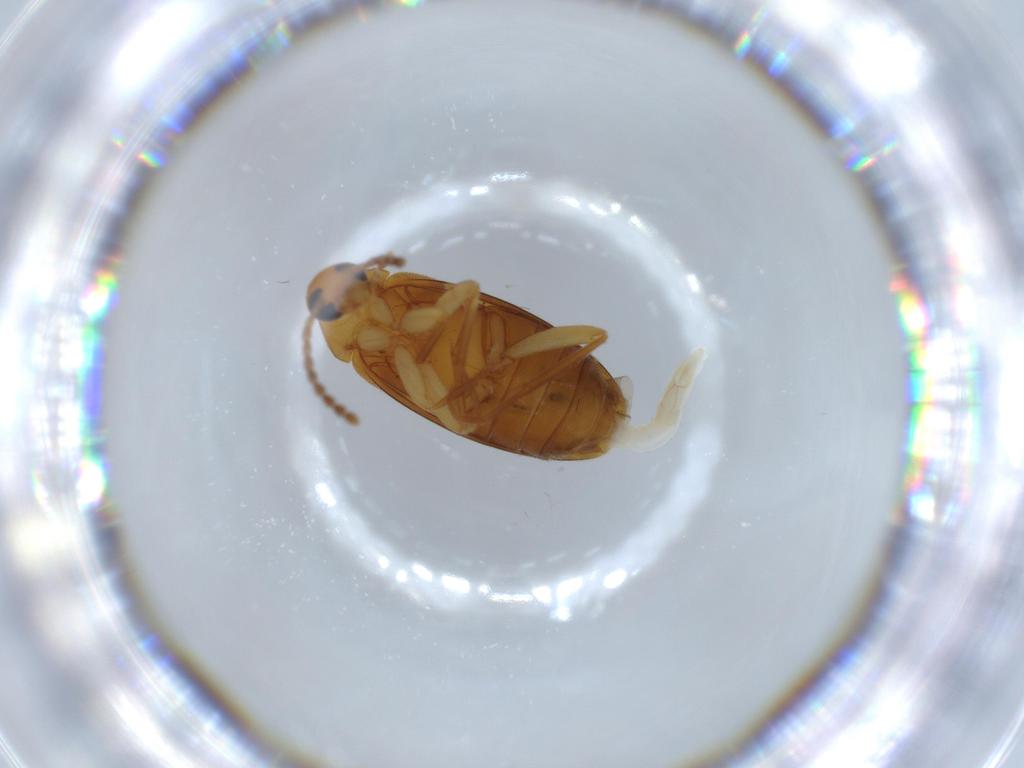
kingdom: Animalia
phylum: Arthropoda
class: Insecta
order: Coleoptera
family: Scraptiidae
